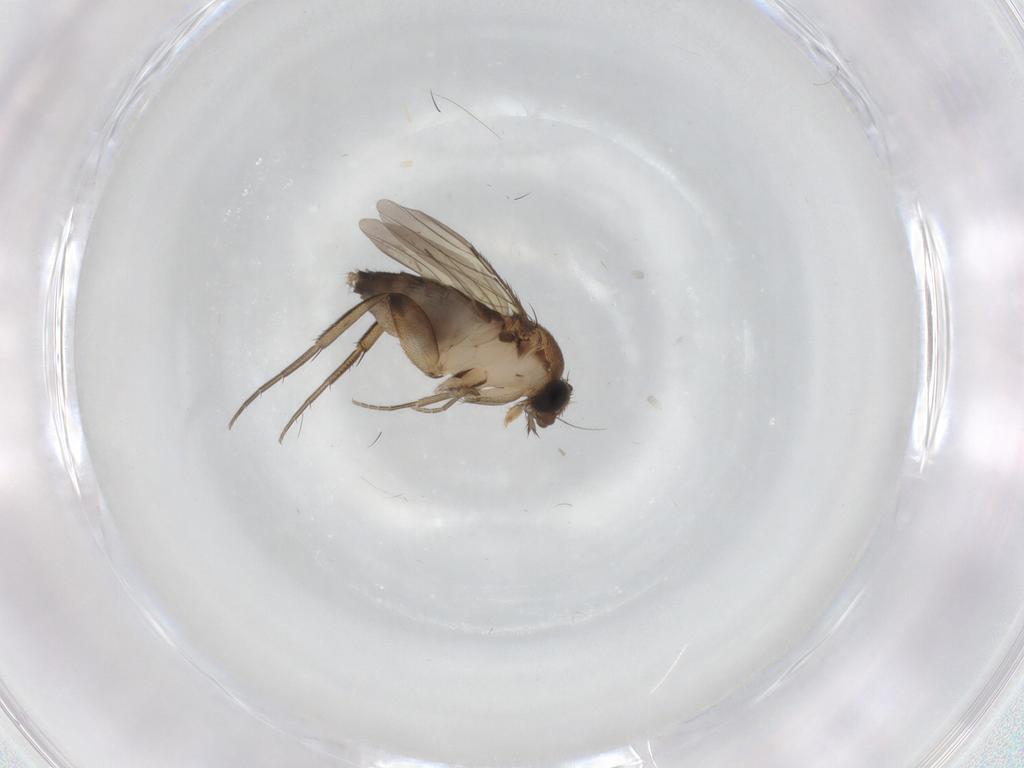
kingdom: Animalia
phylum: Arthropoda
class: Insecta
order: Diptera
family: Phoridae
